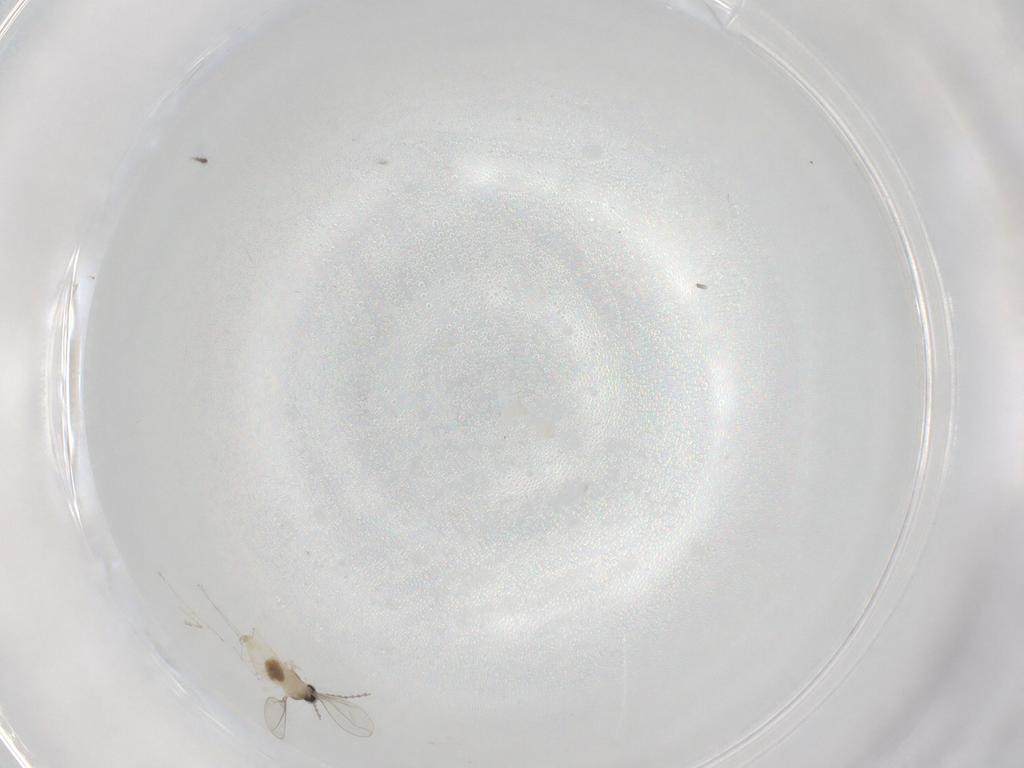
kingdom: Animalia
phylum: Arthropoda
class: Insecta
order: Diptera
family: Cecidomyiidae
